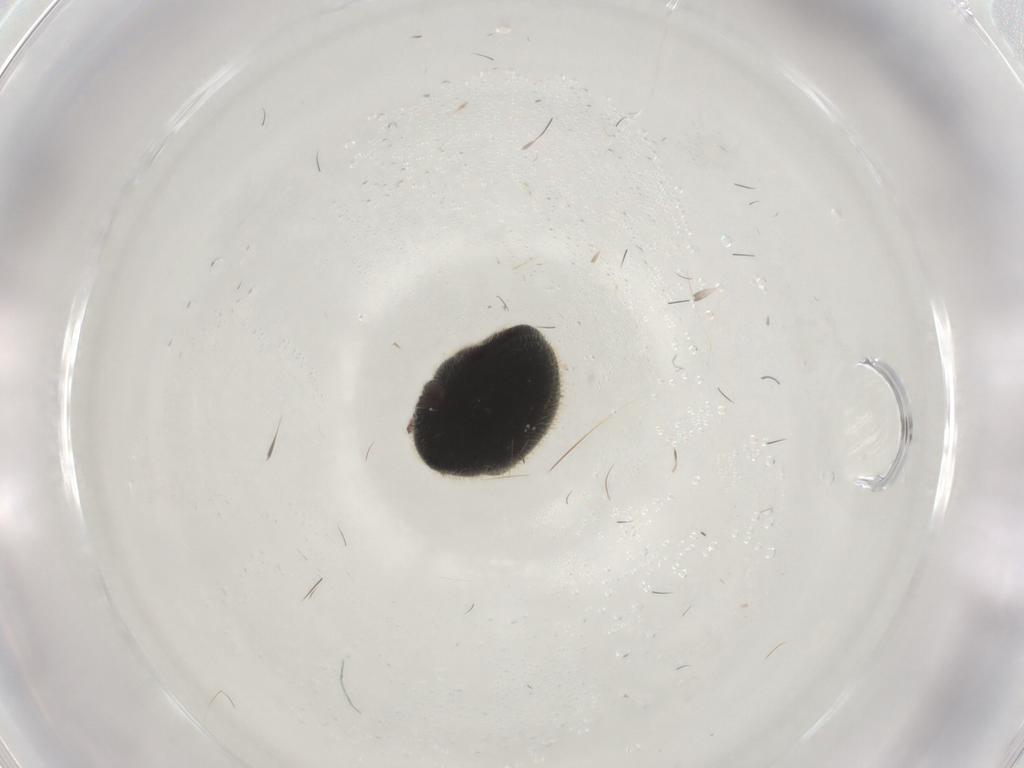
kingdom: Animalia
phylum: Arthropoda
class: Insecta
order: Coleoptera
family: Ptinidae
